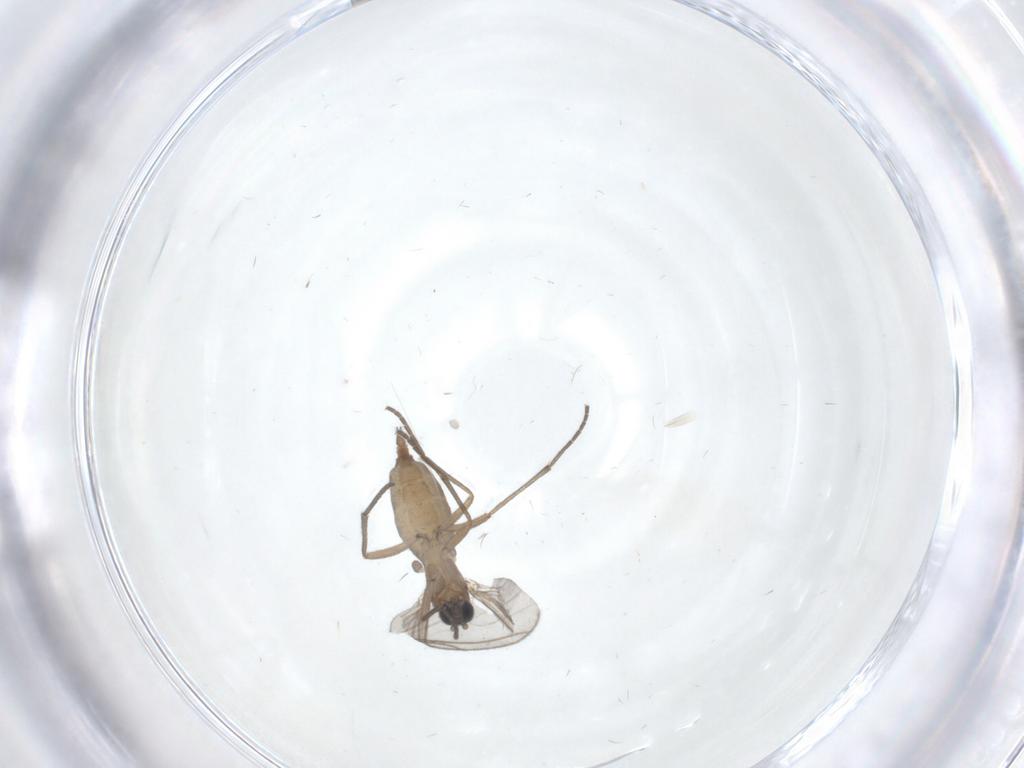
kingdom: Animalia
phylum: Arthropoda
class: Insecta
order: Diptera
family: Sciaridae
